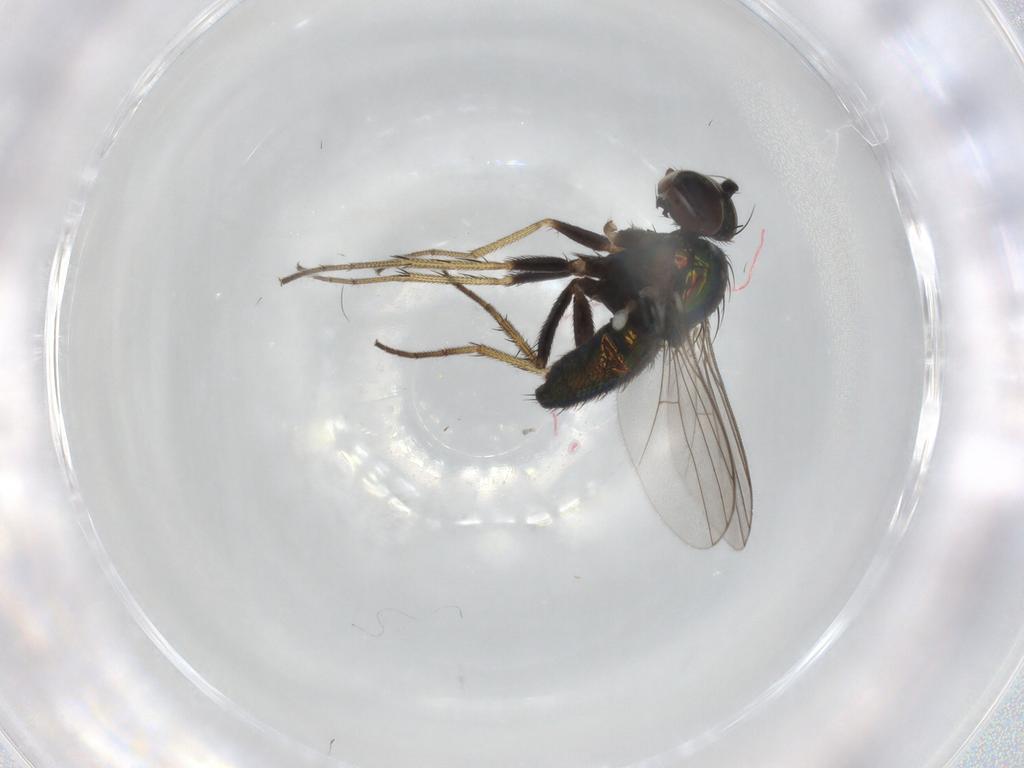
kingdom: Animalia
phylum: Arthropoda
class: Insecta
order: Diptera
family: Dolichopodidae
